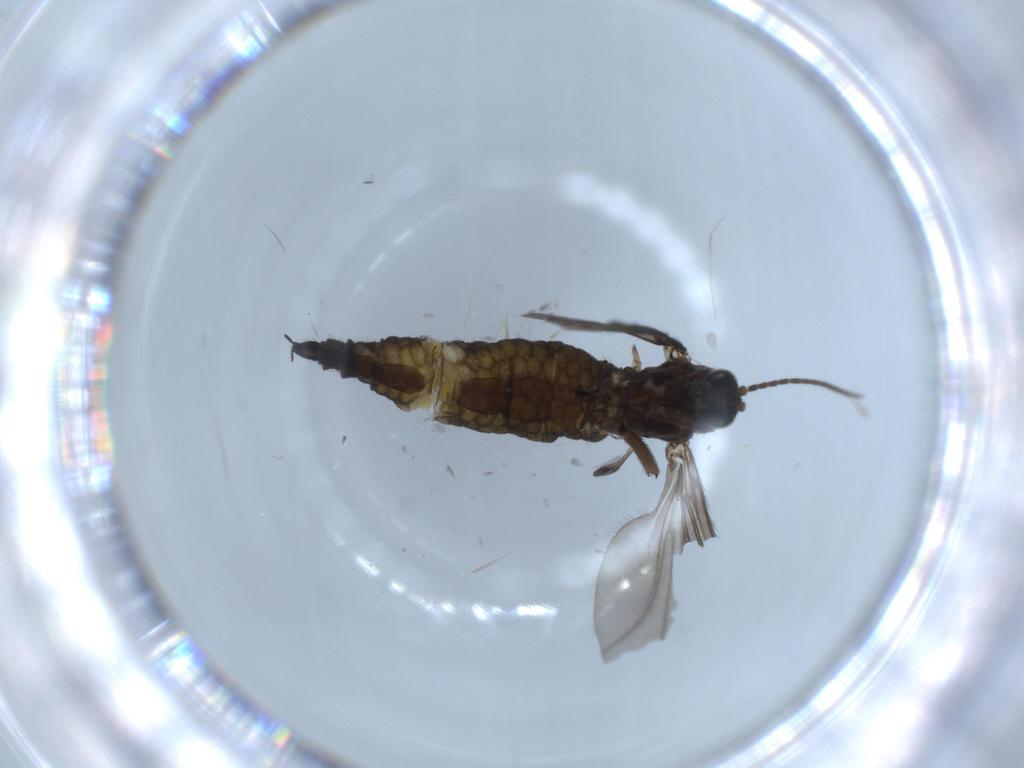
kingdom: Animalia
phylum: Arthropoda
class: Insecta
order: Diptera
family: Sciaridae
